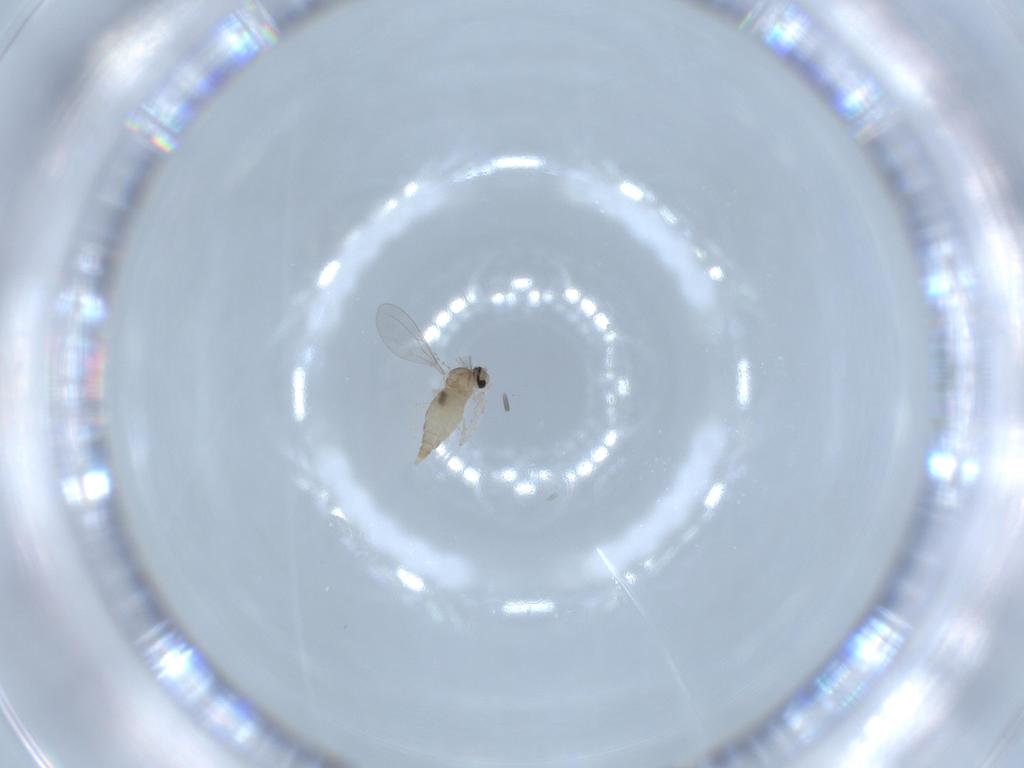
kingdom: Animalia
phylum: Arthropoda
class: Insecta
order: Diptera
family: Cecidomyiidae
